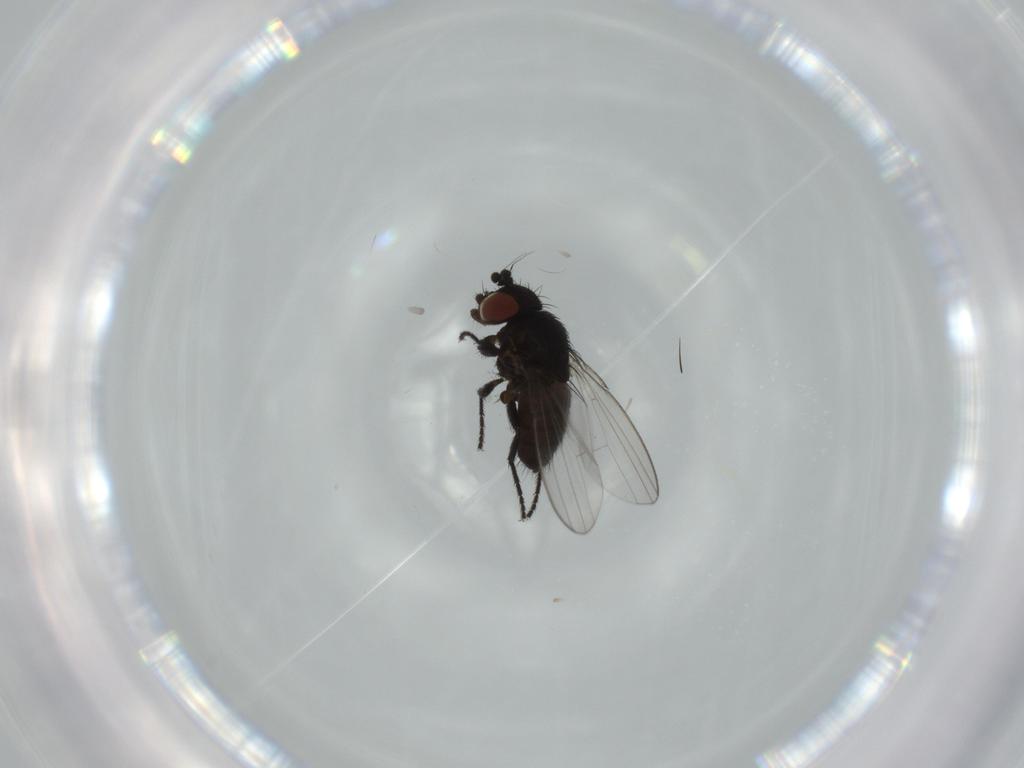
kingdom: Animalia
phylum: Arthropoda
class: Insecta
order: Diptera
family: Milichiidae
